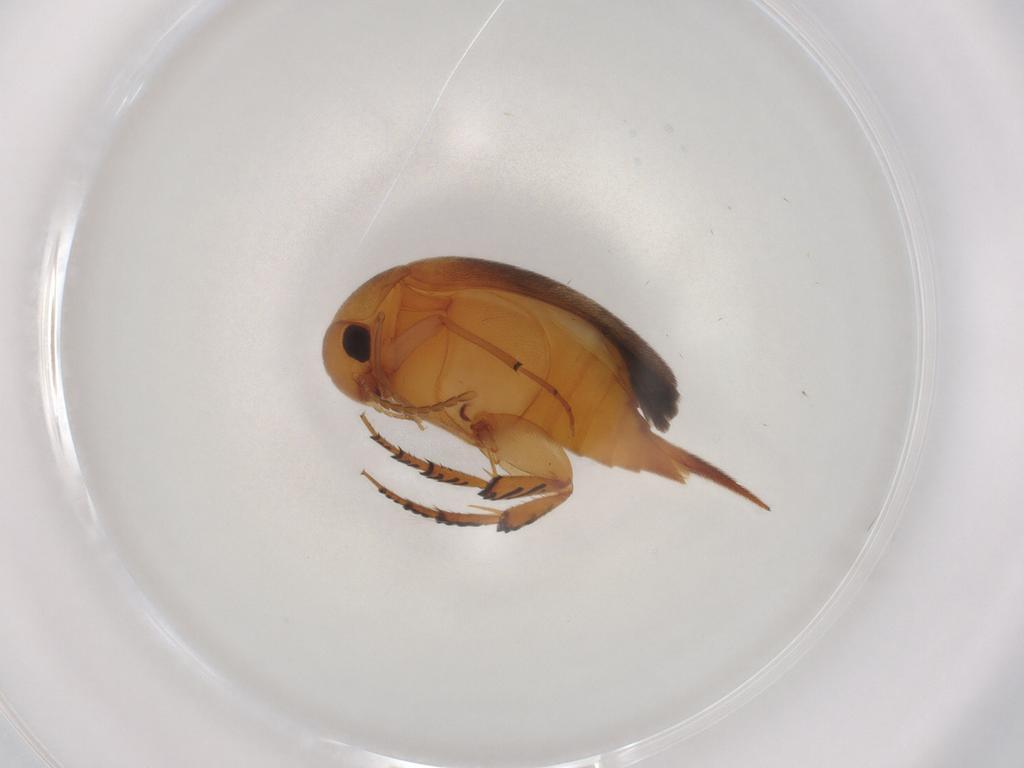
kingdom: Animalia
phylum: Arthropoda
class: Insecta
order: Coleoptera
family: Mordellidae
